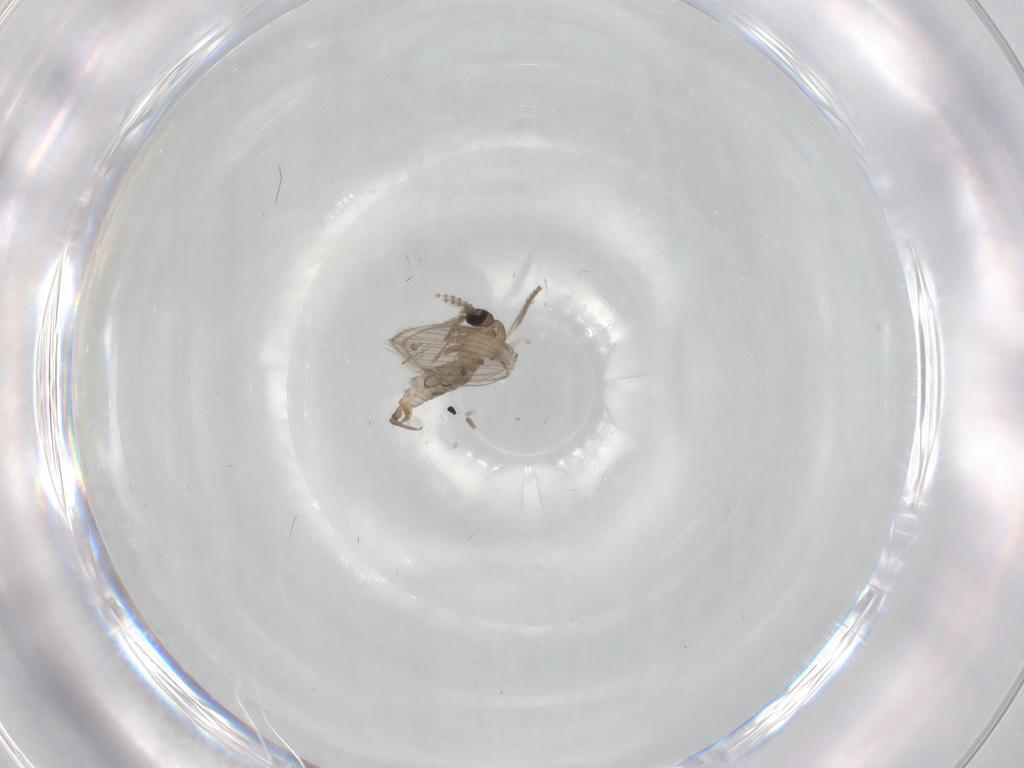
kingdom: Animalia
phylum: Arthropoda
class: Insecta
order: Diptera
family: Psychodidae
